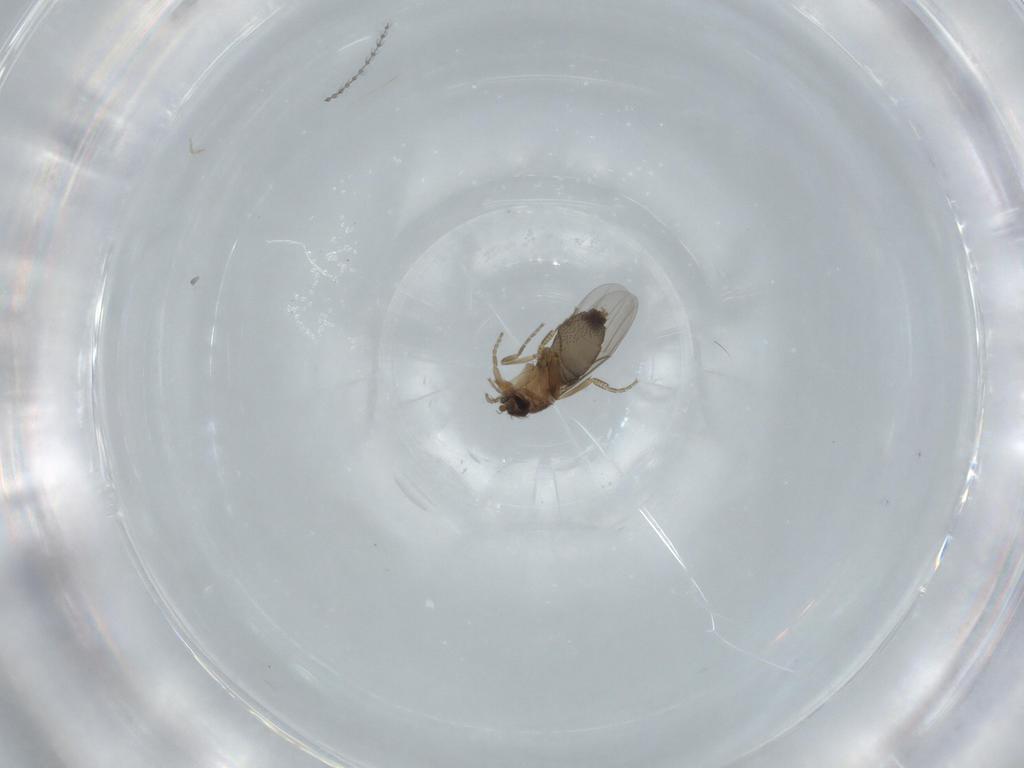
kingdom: Animalia
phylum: Arthropoda
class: Insecta
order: Diptera
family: Cecidomyiidae
